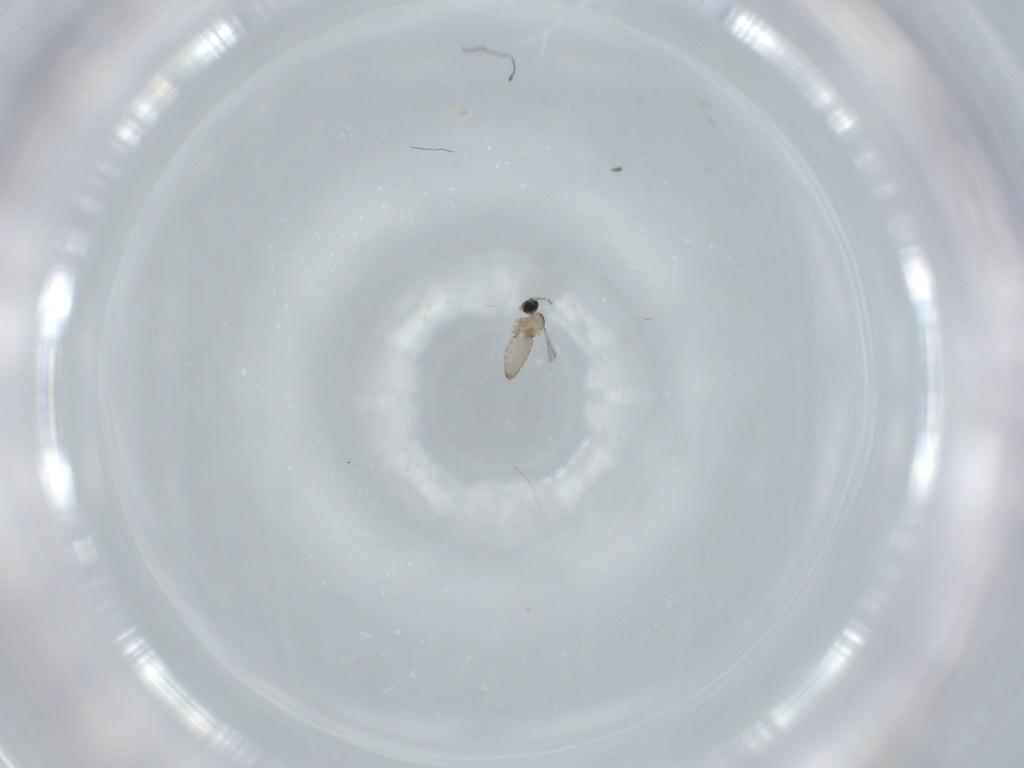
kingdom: Animalia
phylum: Arthropoda
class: Insecta
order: Diptera
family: Cecidomyiidae
